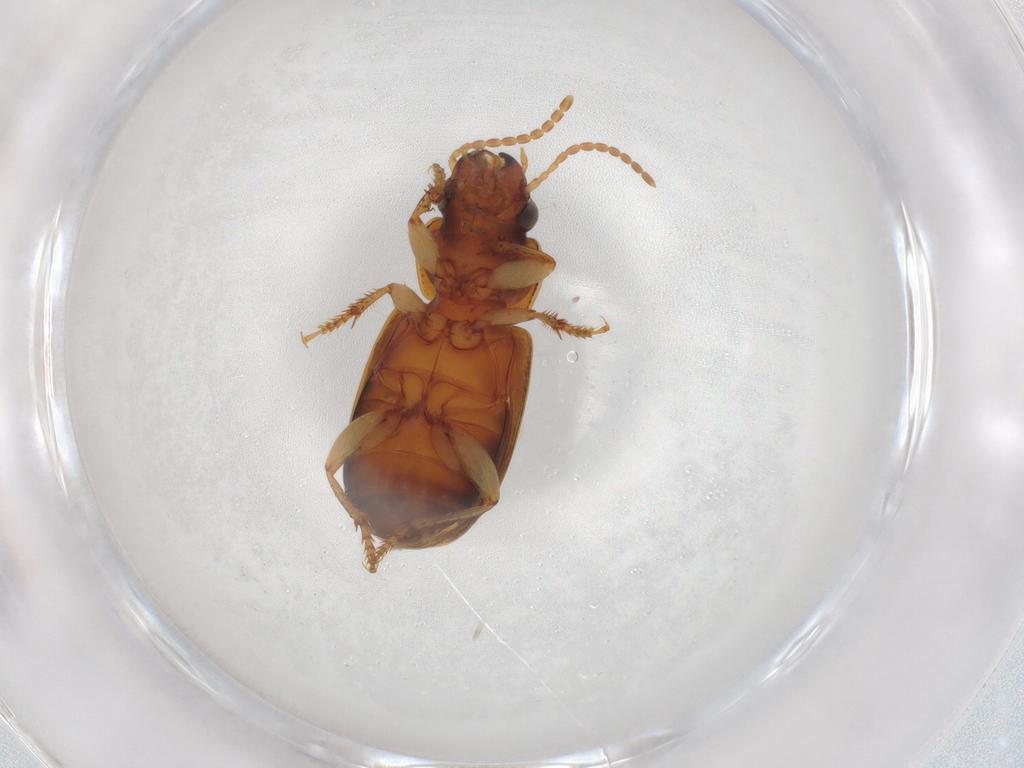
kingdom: Animalia
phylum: Arthropoda
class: Insecta
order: Coleoptera
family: Carabidae
